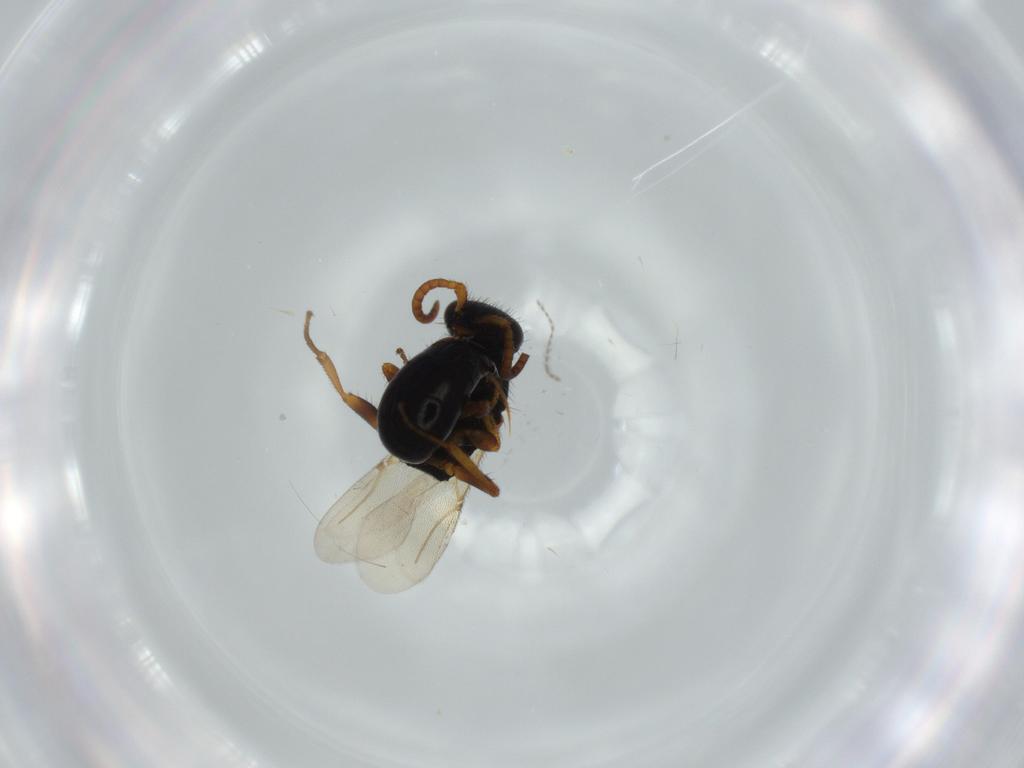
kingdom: Animalia
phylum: Arthropoda
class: Insecta
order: Hymenoptera
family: Bethylidae
